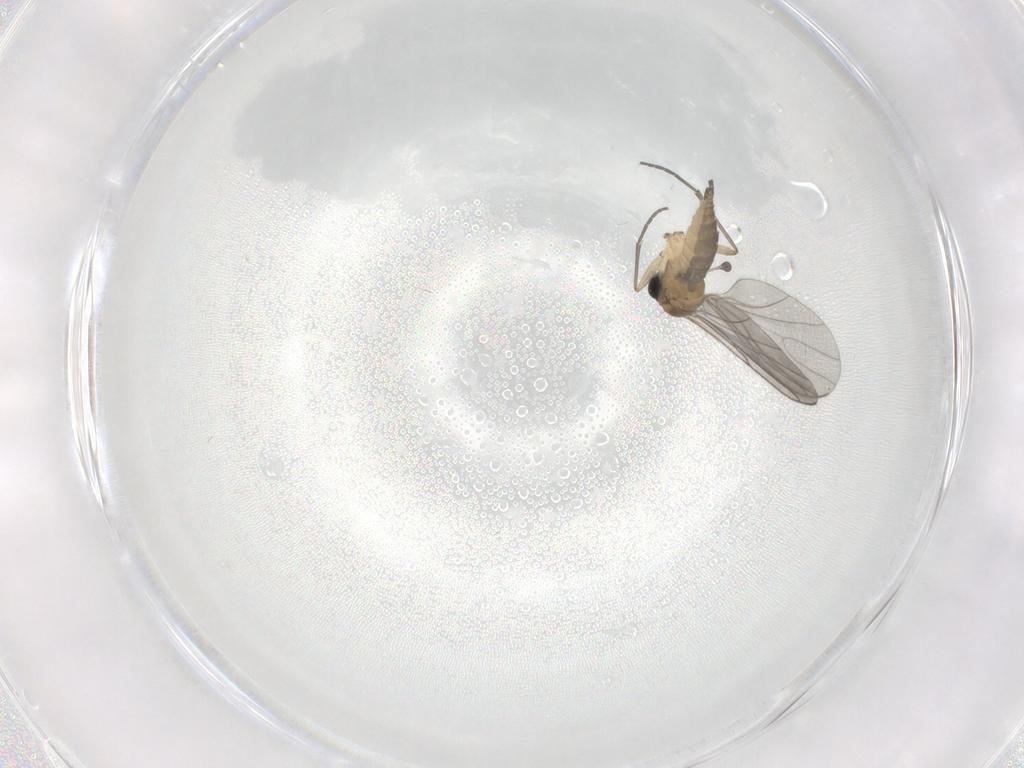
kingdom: Animalia
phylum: Arthropoda
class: Insecta
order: Diptera
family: Sciaridae
